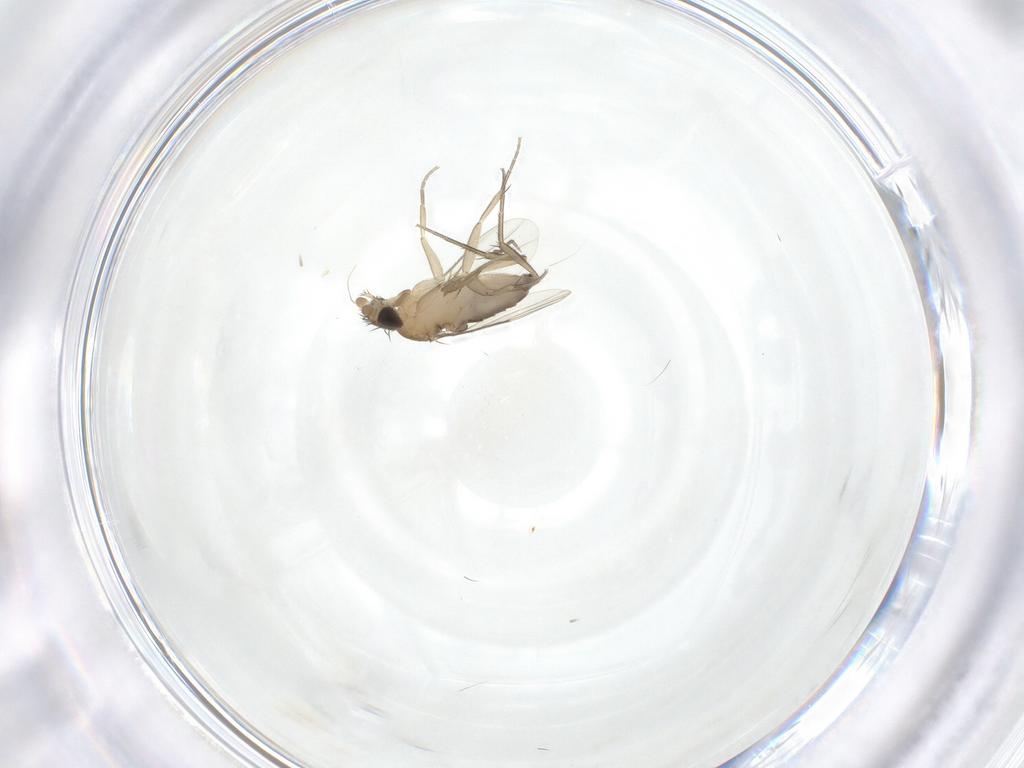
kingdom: Animalia
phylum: Arthropoda
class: Insecta
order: Diptera
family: Phoridae
